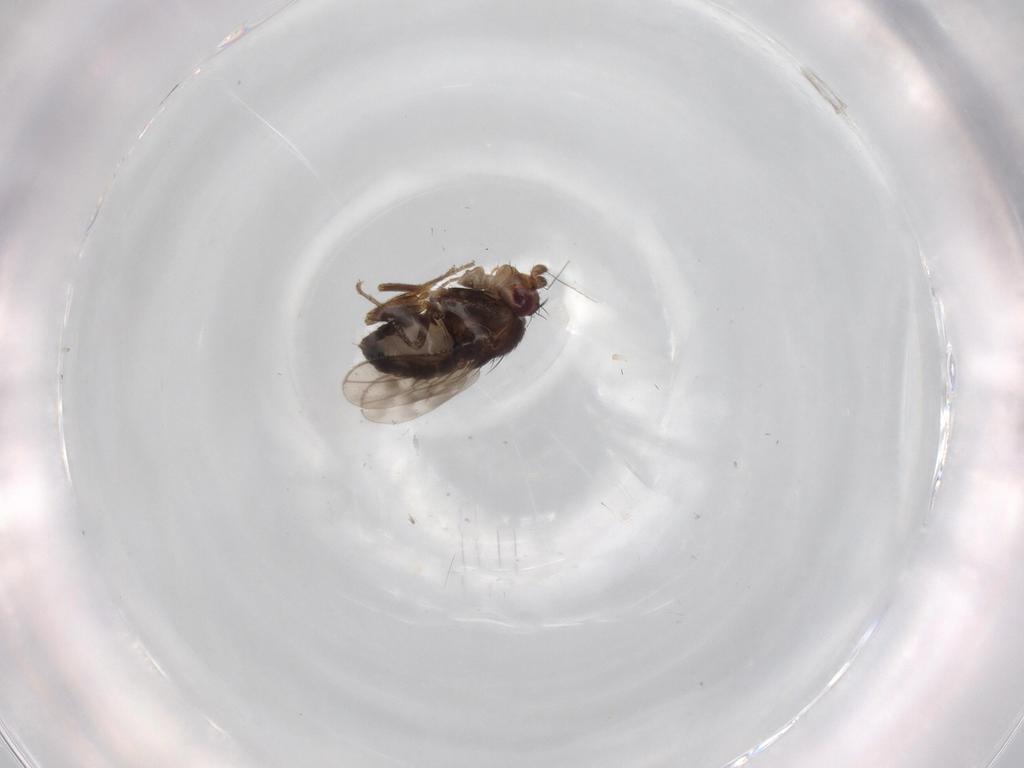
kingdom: Animalia
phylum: Arthropoda
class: Insecta
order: Diptera
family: Sphaeroceridae
